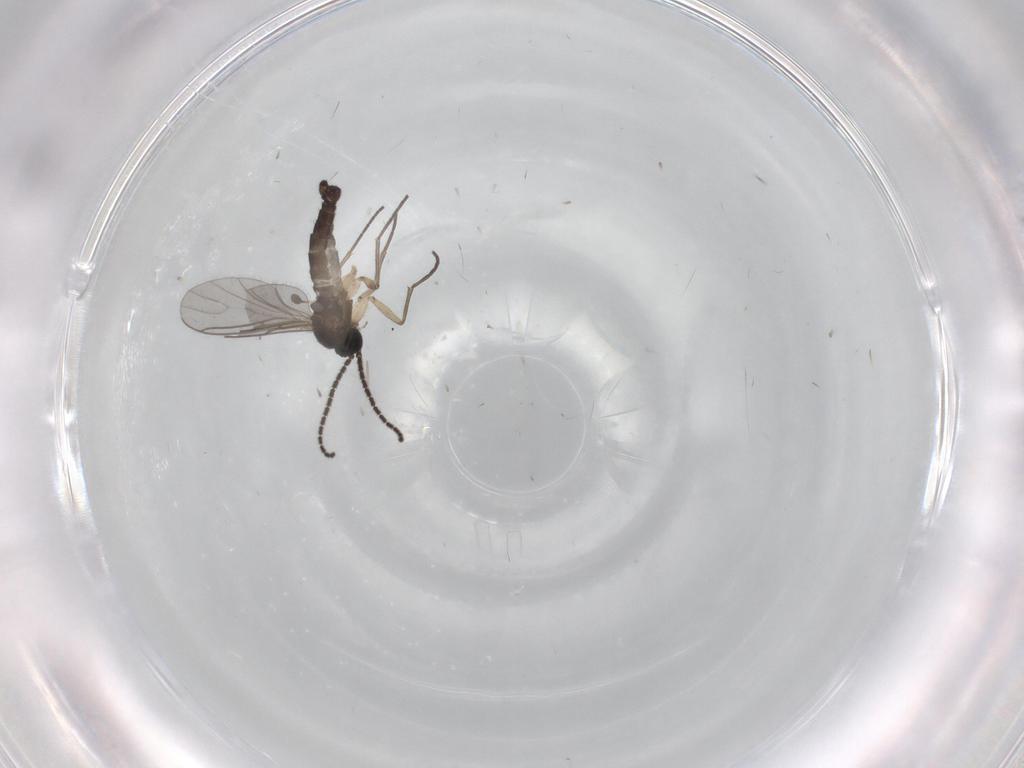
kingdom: Animalia
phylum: Arthropoda
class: Insecta
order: Diptera
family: Sciaridae
